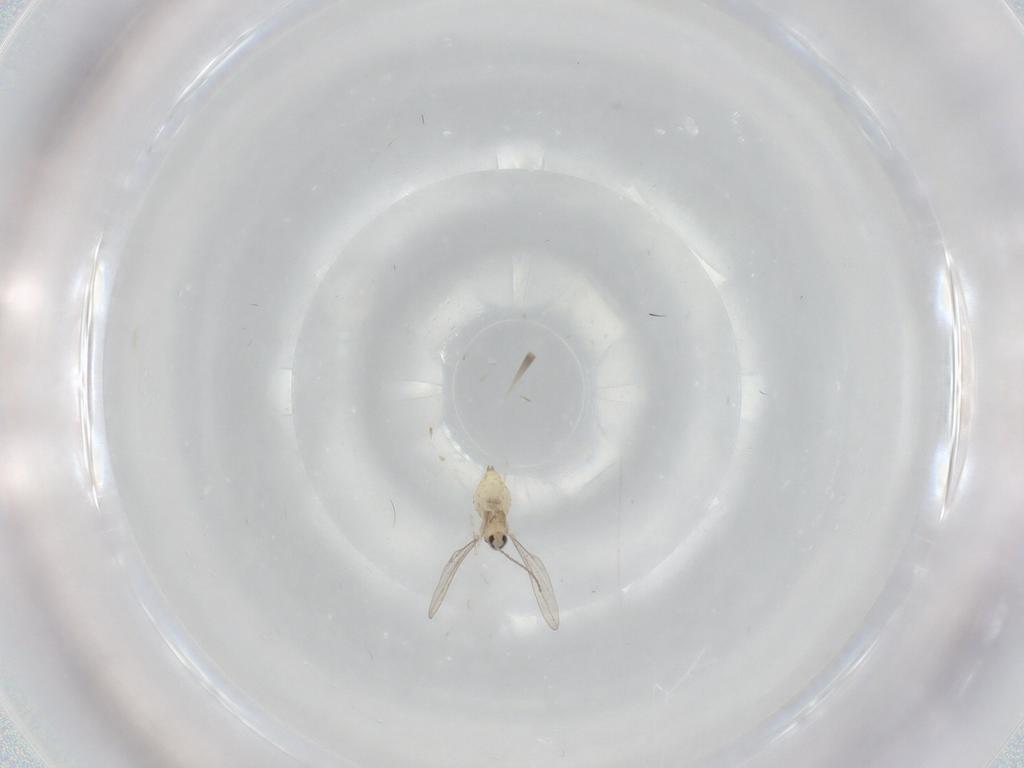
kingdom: Animalia
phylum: Arthropoda
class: Insecta
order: Diptera
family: Cecidomyiidae
